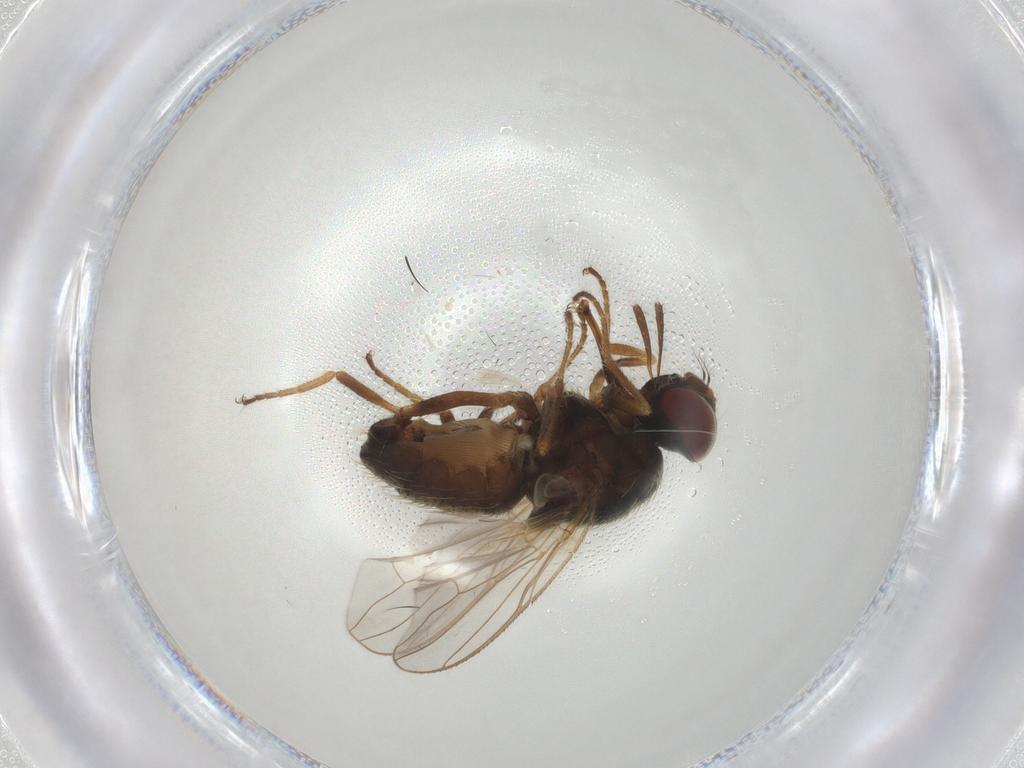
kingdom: Animalia
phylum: Arthropoda
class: Insecta
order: Diptera
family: Muscidae
